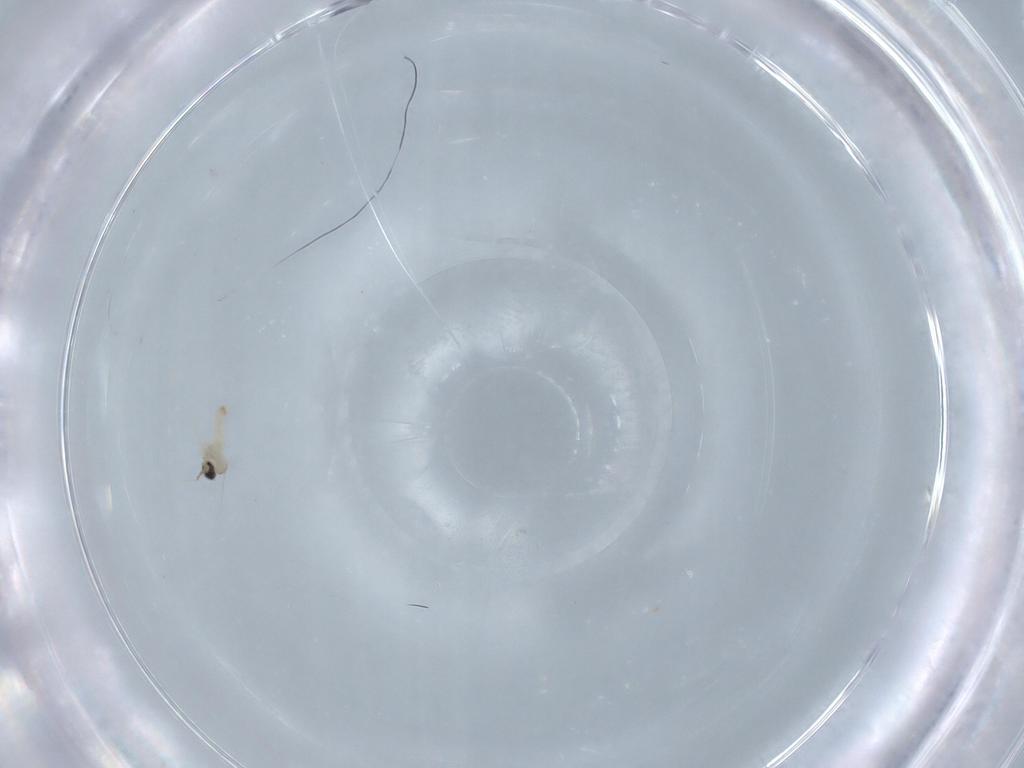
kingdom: Animalia
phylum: Arthropoda
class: Insecta
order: Diptera
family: Cecidomyiidae
